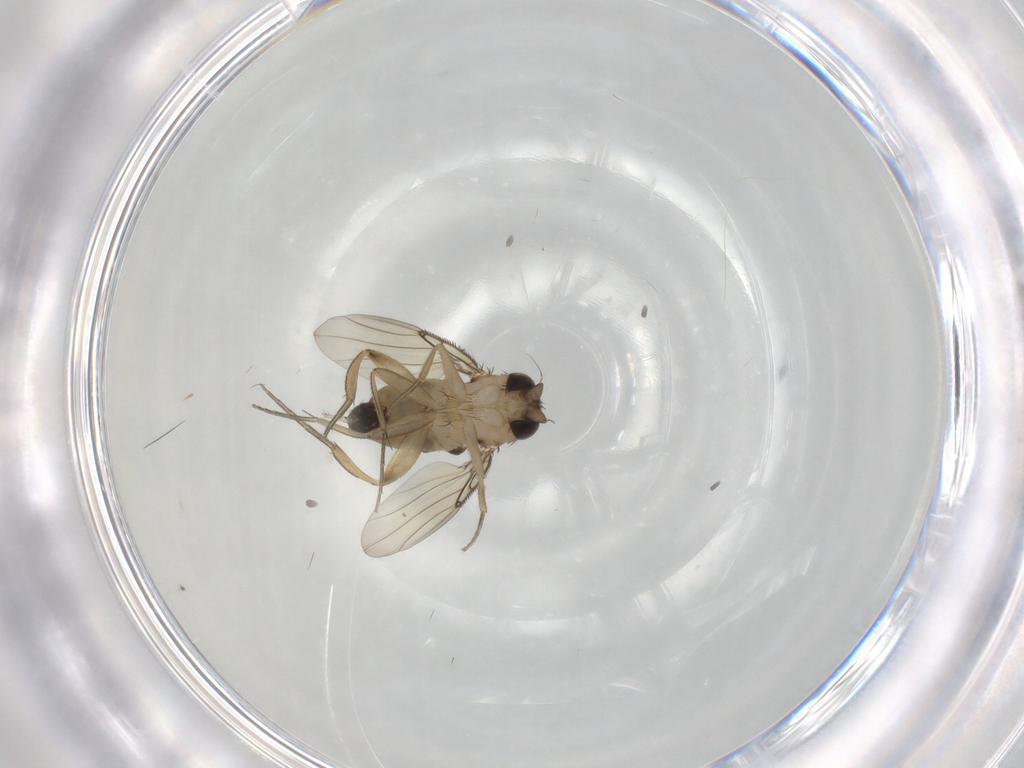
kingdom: Animalia
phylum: Arthropoda
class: Insecta
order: Diptera
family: Phoridae
